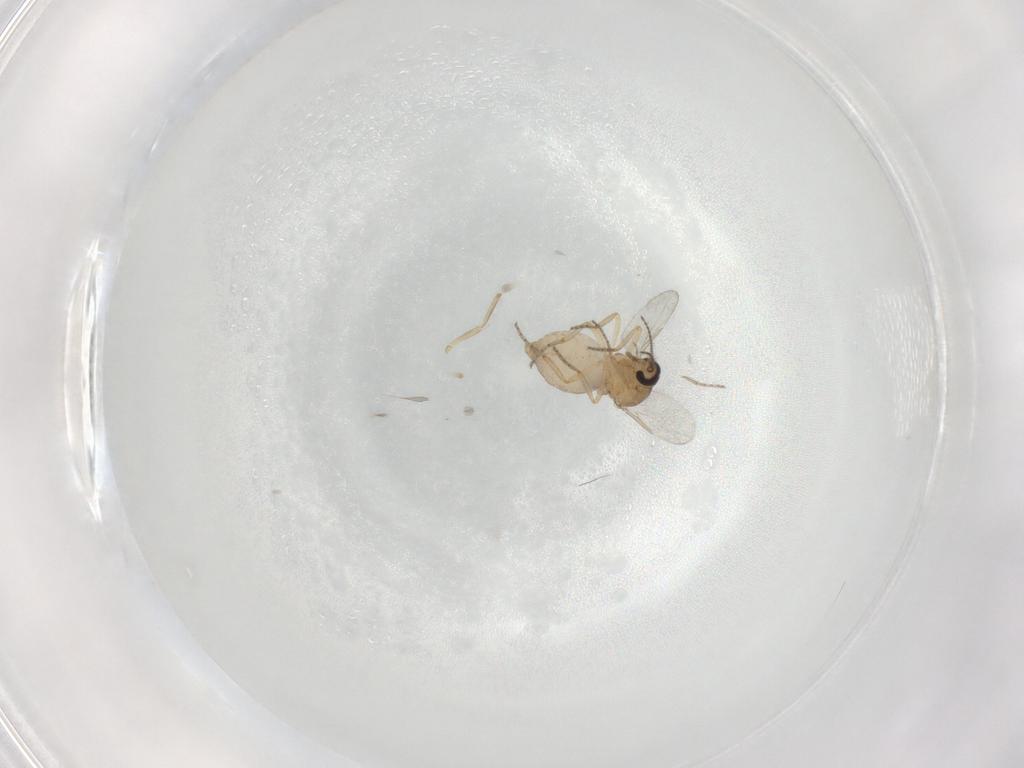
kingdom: Animalia
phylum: Arthropoda
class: Insecta
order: Diptera
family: Ceratopogonidae
